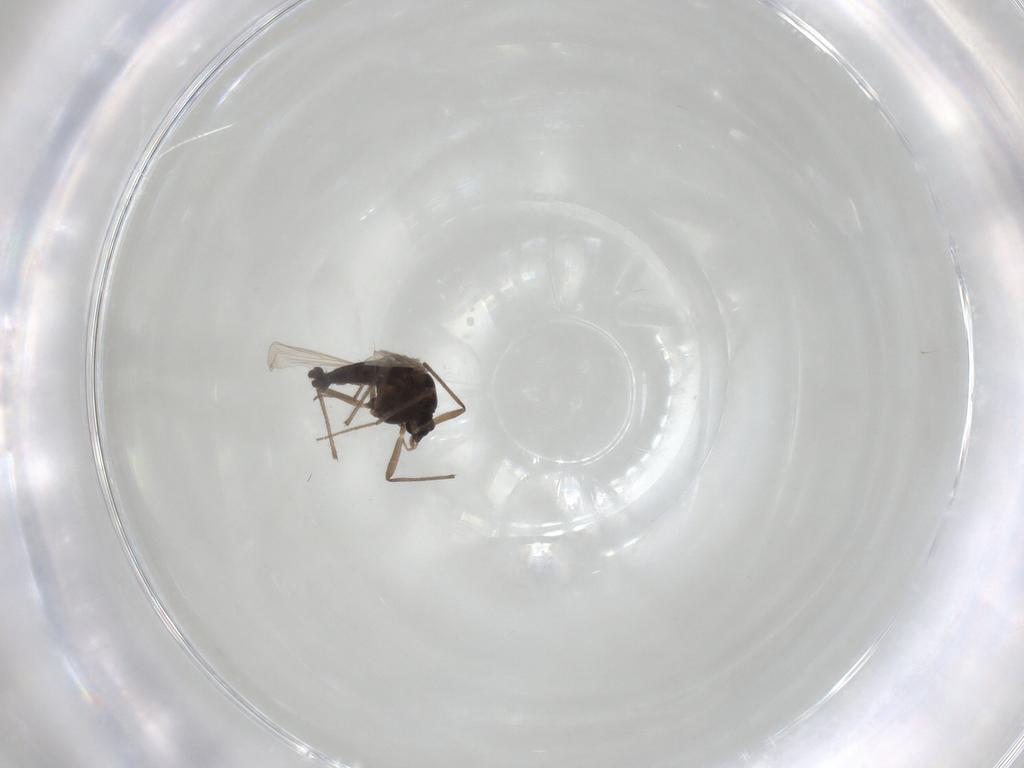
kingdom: Animalia
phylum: Arthropoda
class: Insecta
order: Diptera
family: Chironomidae
